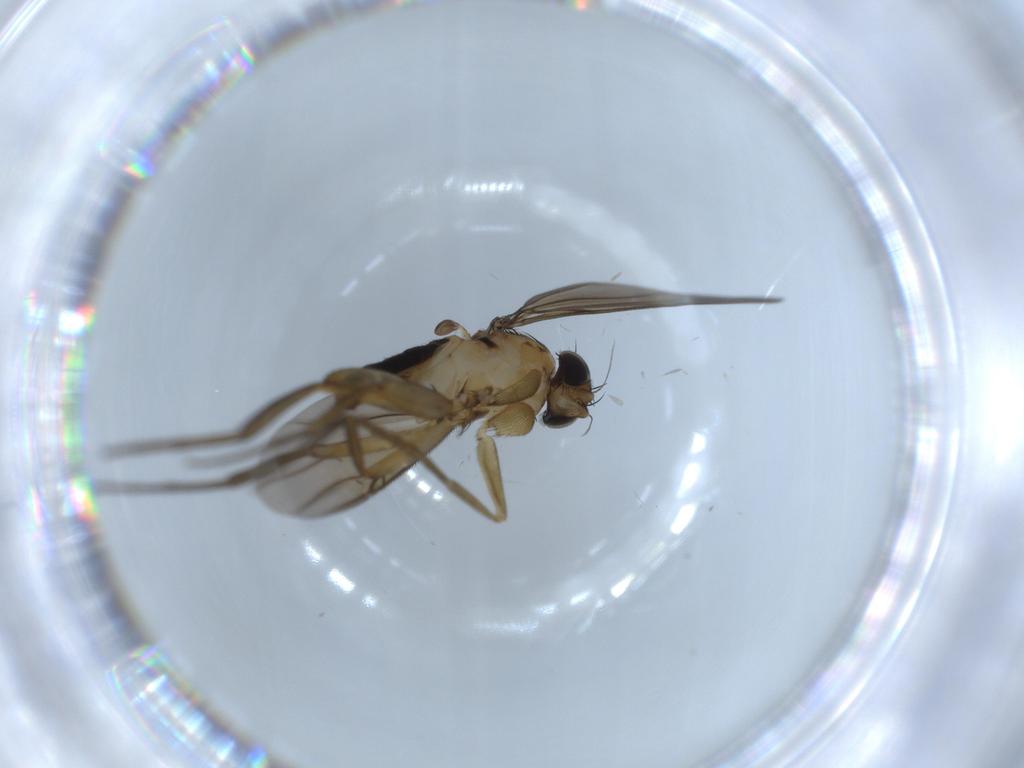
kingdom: Animalia
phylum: Arthropoda
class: Insecta
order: Diptera
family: Phoridae
